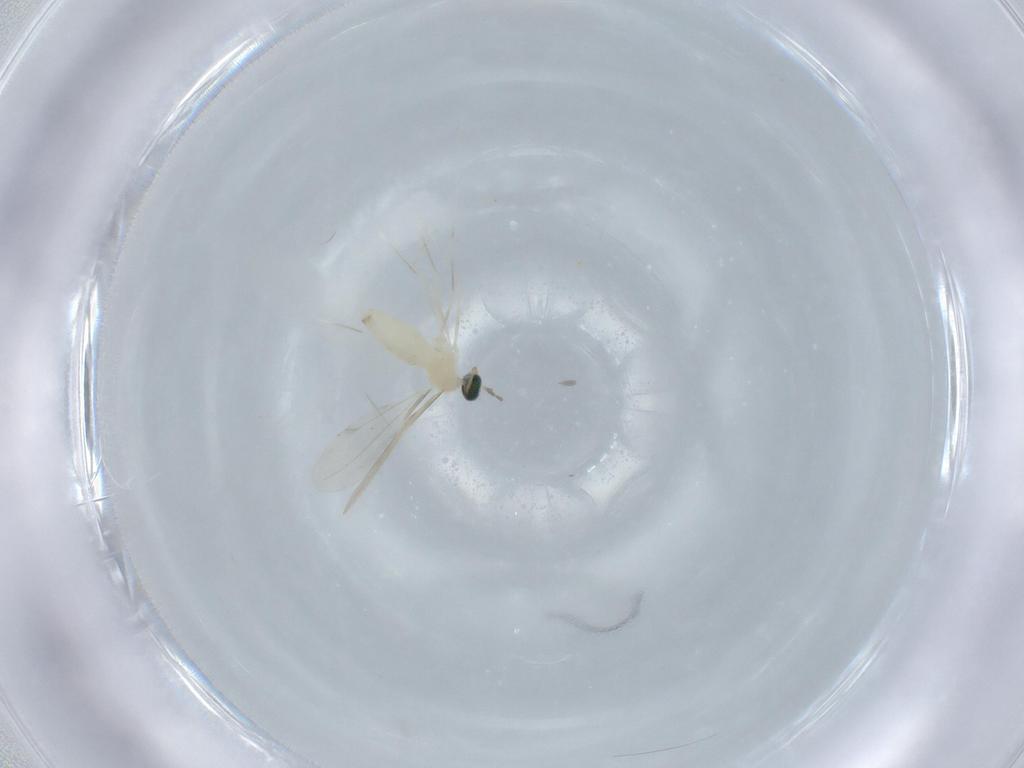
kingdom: Animalia
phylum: Arthropoda
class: Insecta
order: Diptera
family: Cecidomyiidae
